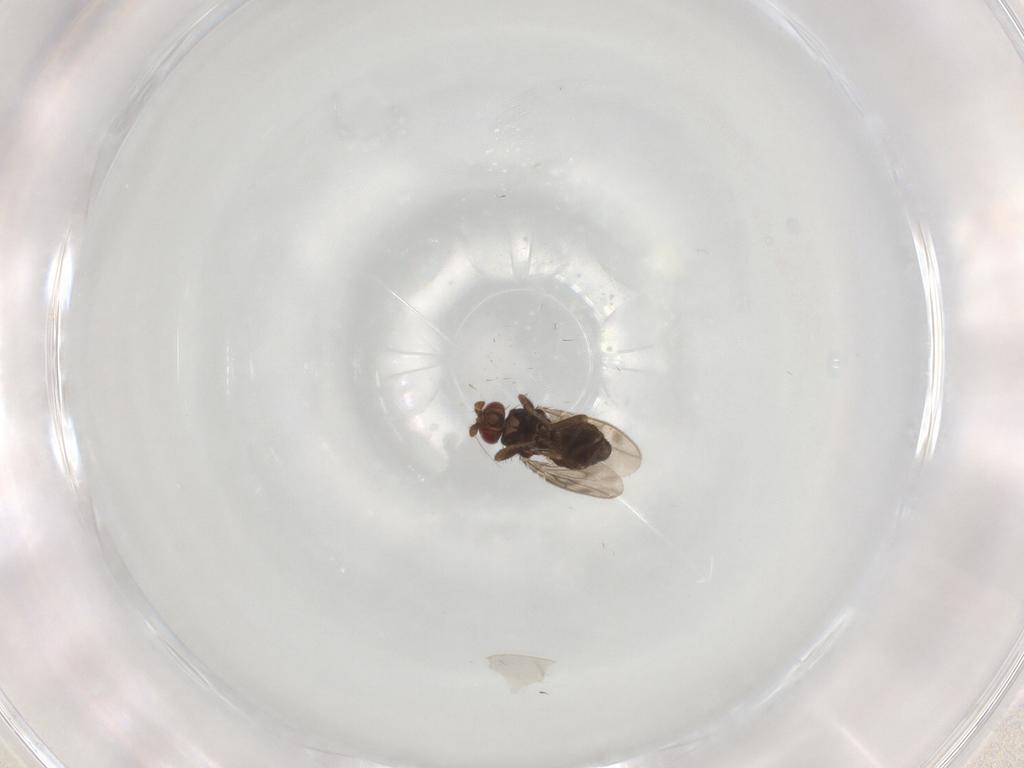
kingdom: Animalia
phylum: Arthropoda
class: Insecta
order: Diptera
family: Sphaeroceridae
